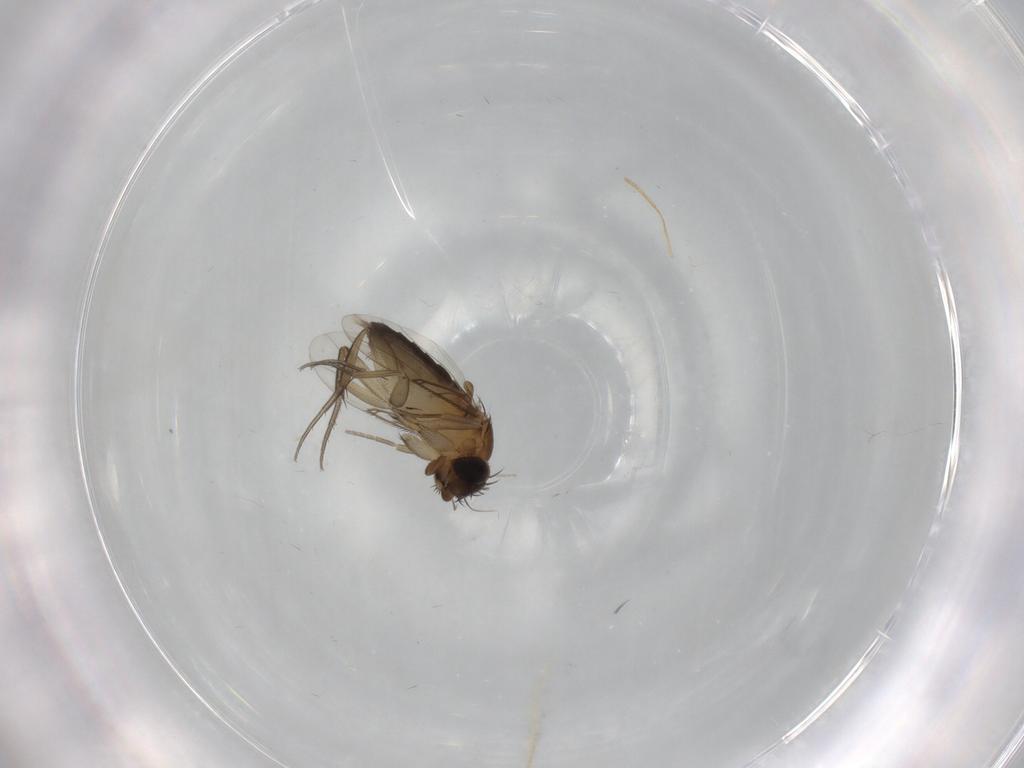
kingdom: Animalia
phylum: Arthropoda
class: Insecta
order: Diptera
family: Phoridae
